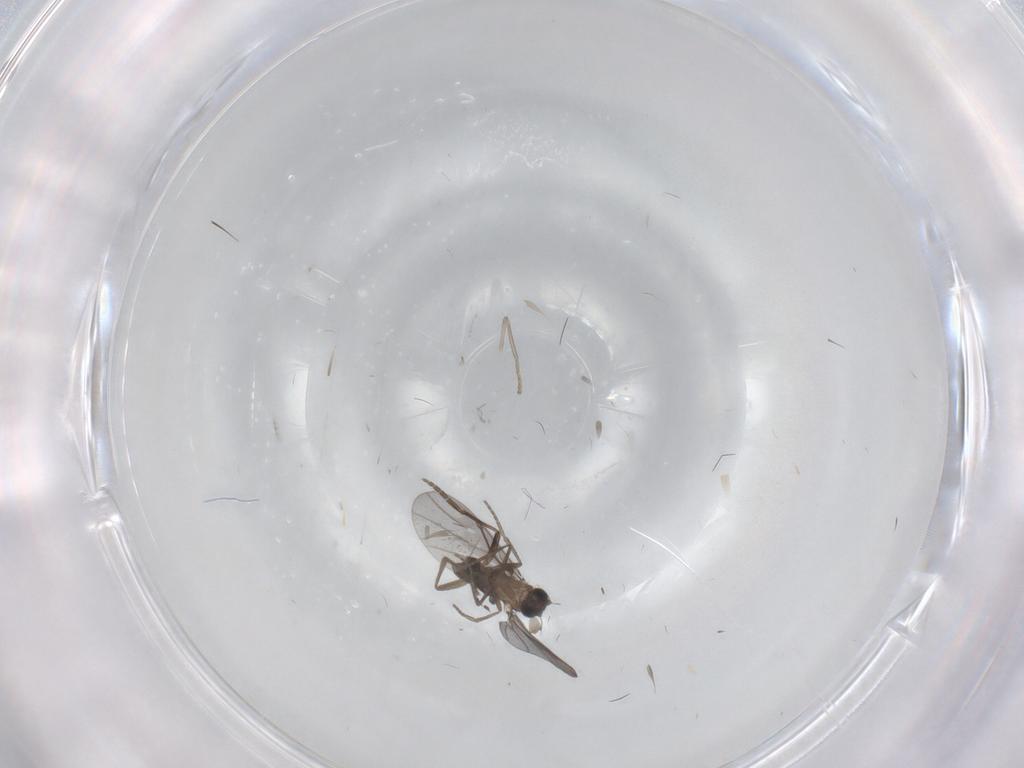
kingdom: Animalia
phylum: Arthropoda
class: Insecta
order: Diptera
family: Cecidomyiidae
